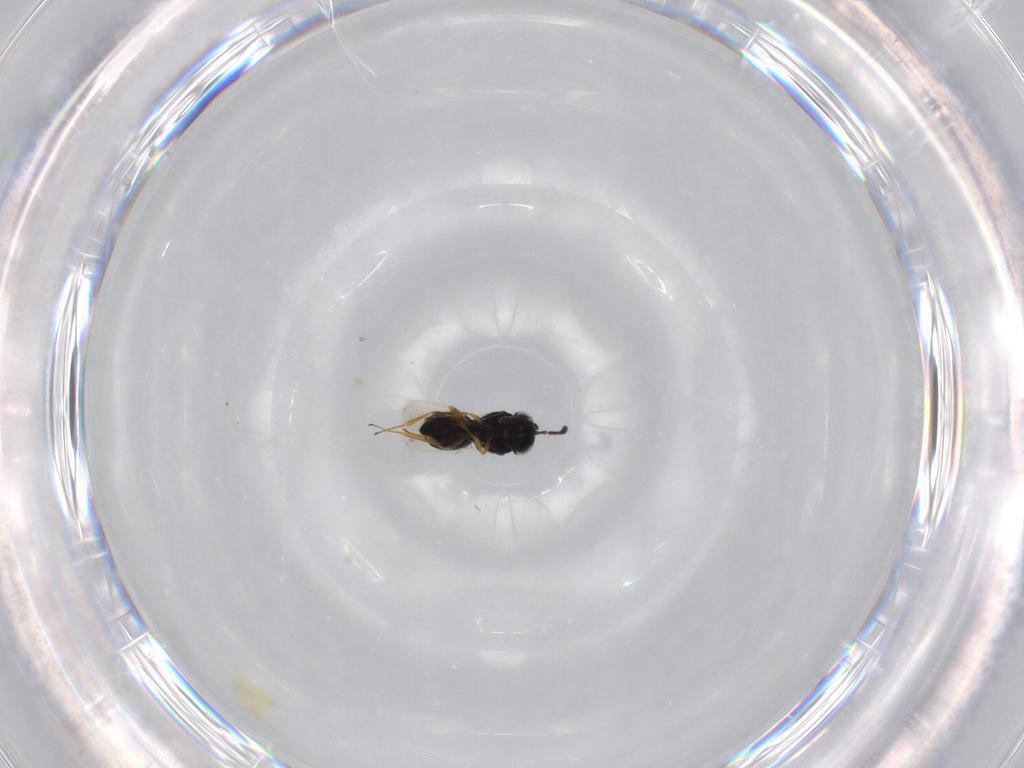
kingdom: Animalia
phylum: Arthropoda
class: Insecta
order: Hymenoptera
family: Scelionidae
